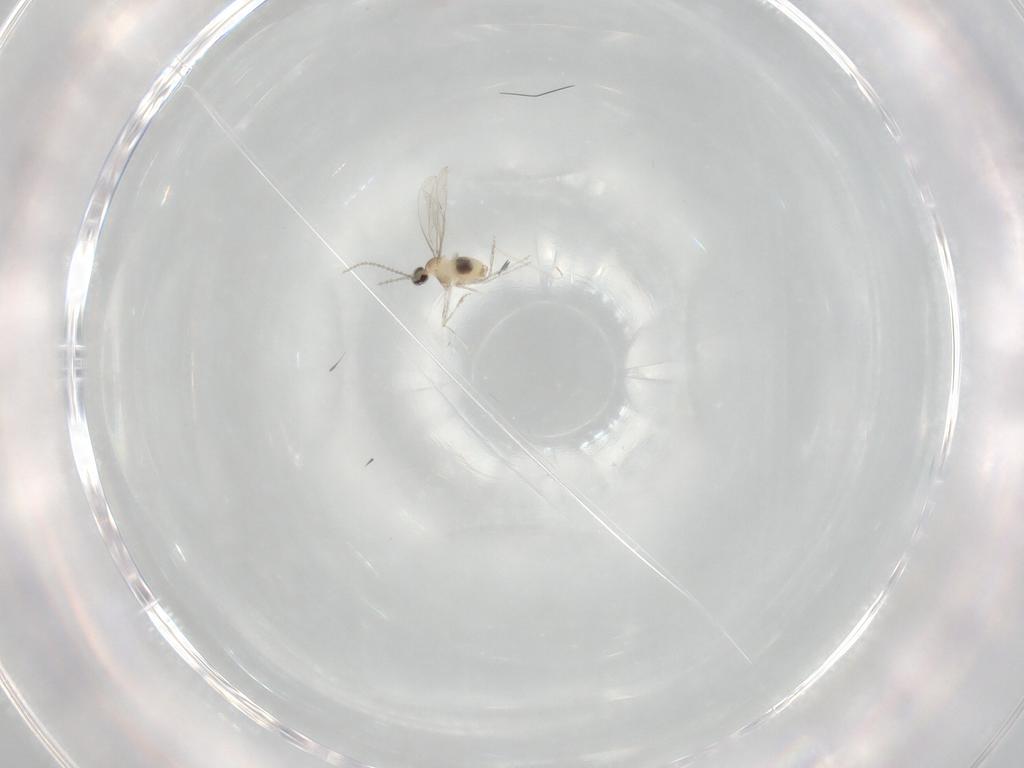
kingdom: Animalia
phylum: Arthropoda
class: Insecta
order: Diptera
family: Cecidomyiidae
